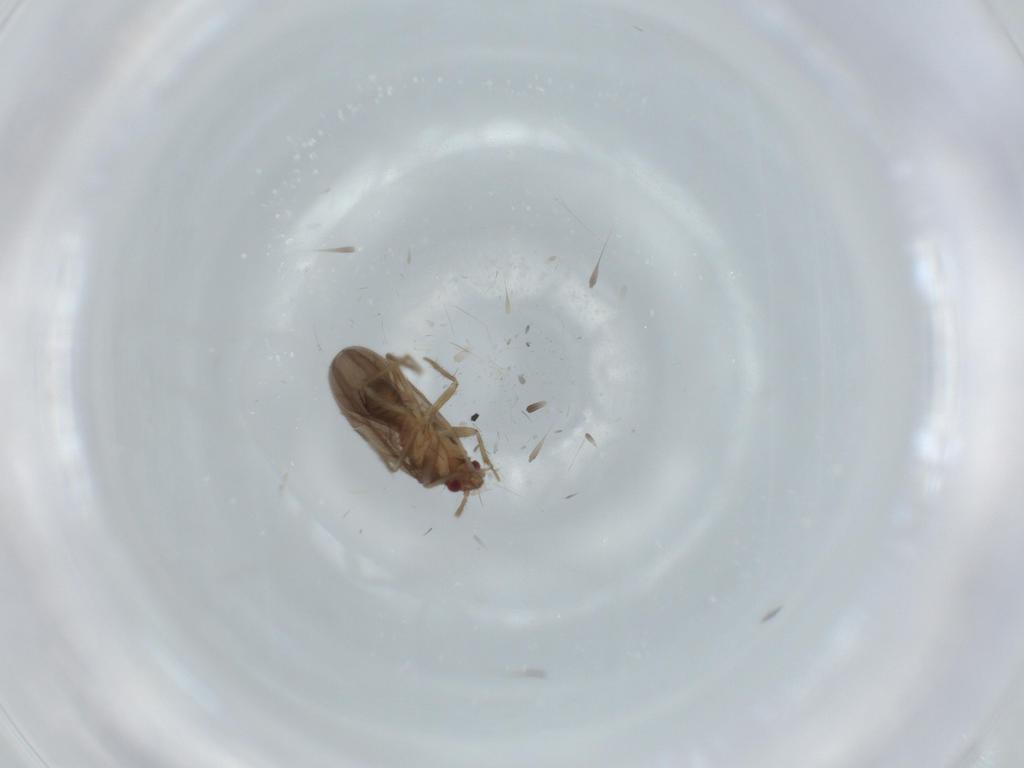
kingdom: Animalia
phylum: Arthropoda
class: Insecta
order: Hemiptera
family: Ceratocombidae
